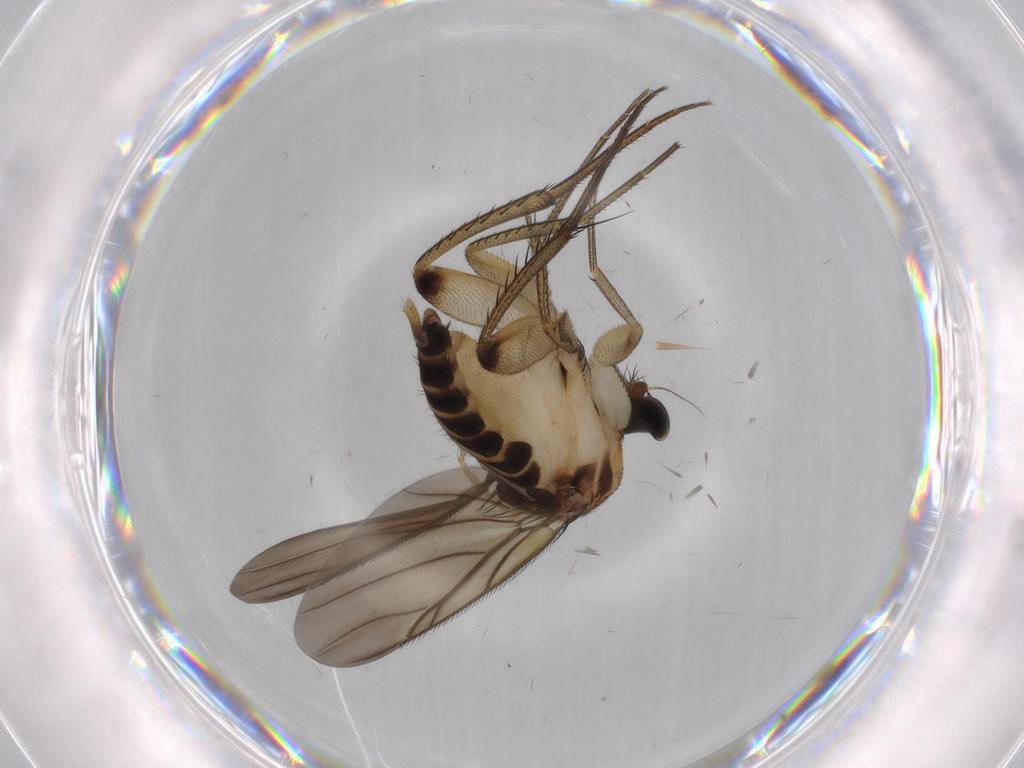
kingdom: Animalia
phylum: Arthropoda
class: Insecta
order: Diptera
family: Phoridae
